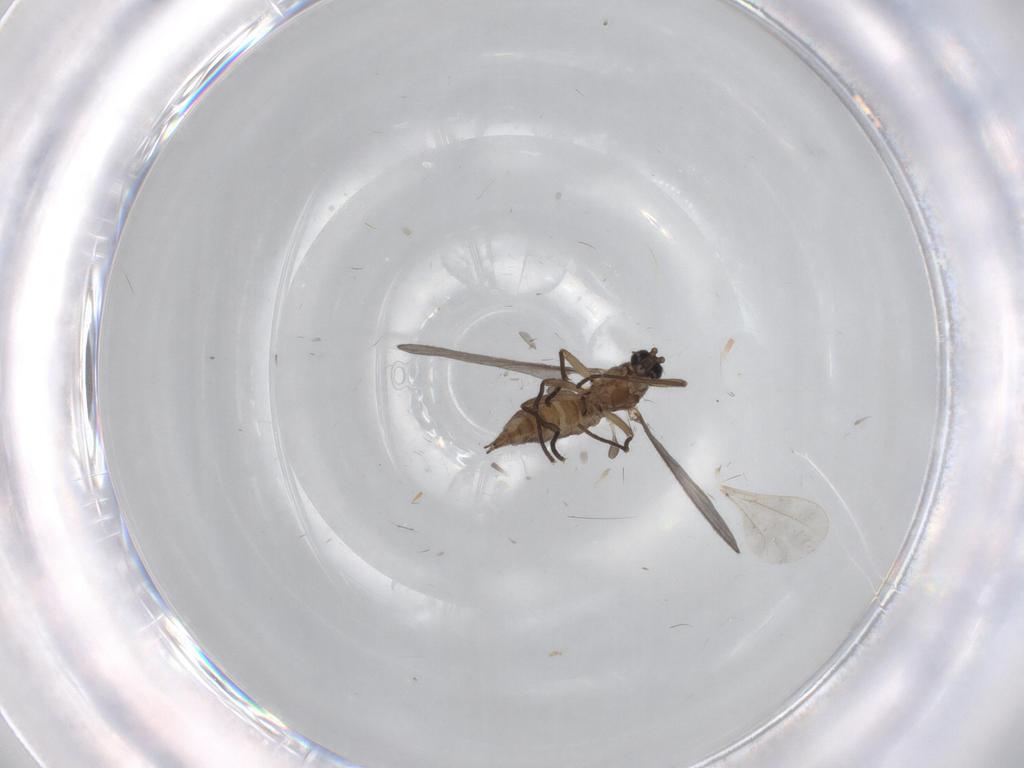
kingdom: Animalia
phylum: Arthropoda
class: Insecta
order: Diptera
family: Sciaridae
